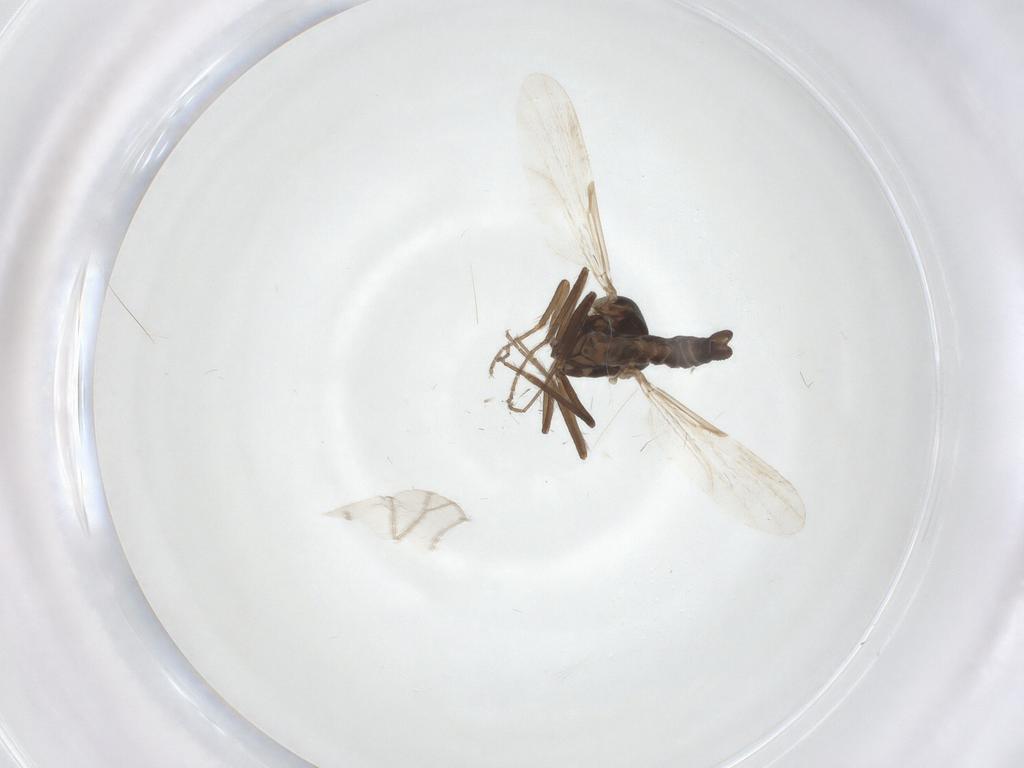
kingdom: Animalia
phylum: Arthropoda
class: Insecta
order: Diptera
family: Ceratopogonidae
